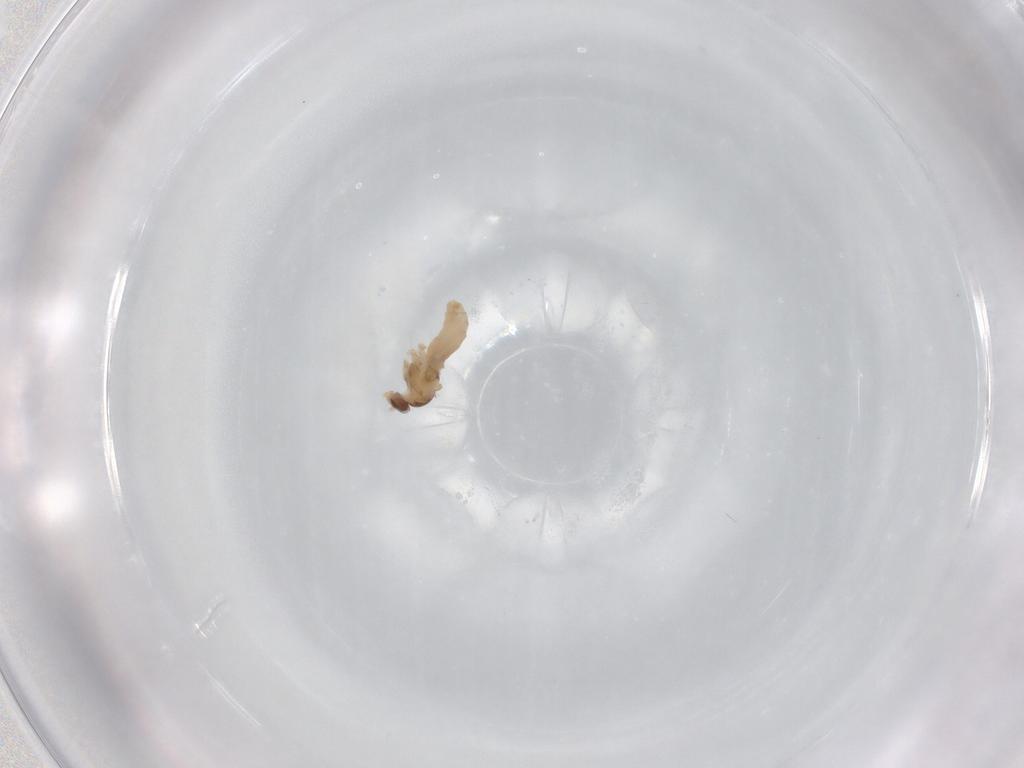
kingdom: Animalia
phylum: Arthropoda
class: Insecta
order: Diptera
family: Cecidomyiidae
